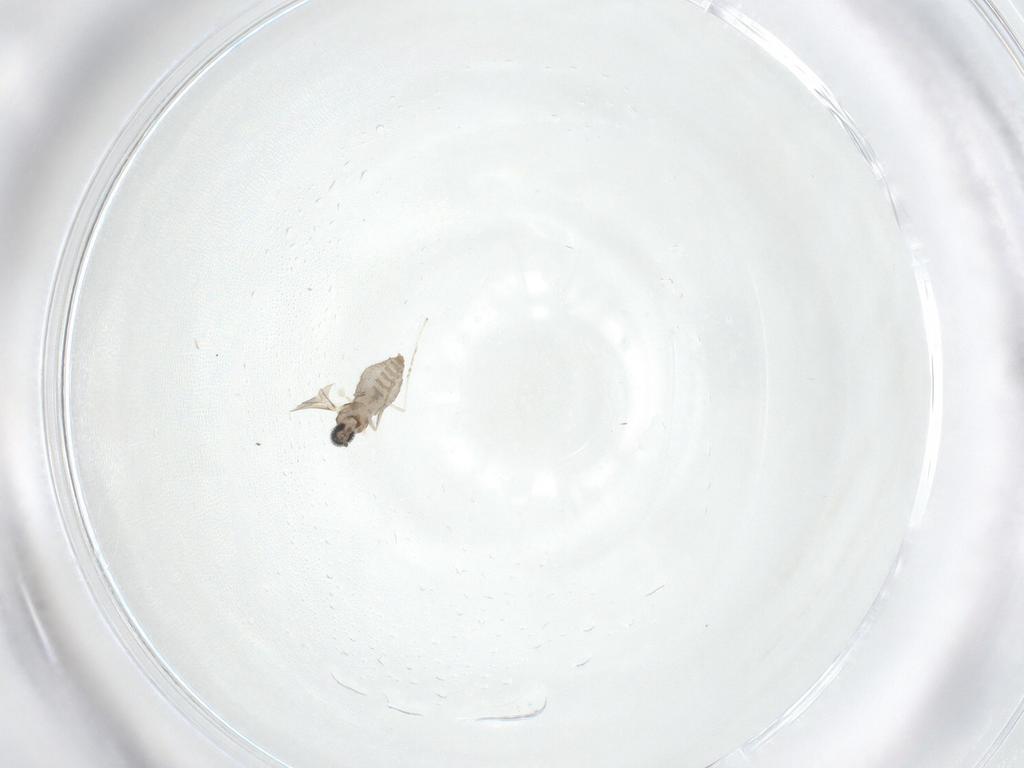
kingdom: Animalia
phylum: Arthropoda
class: Insecta
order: Diptera
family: Cecidomyiidae
